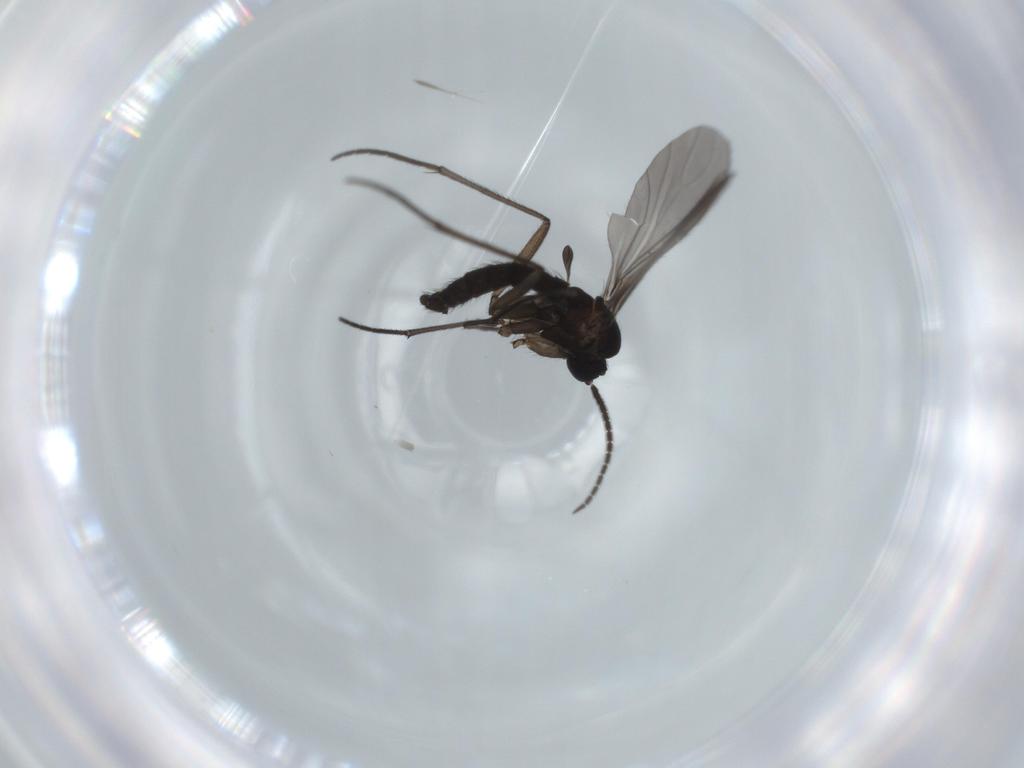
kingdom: Animalia
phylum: Arthropoda
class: Insecta
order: Diptera
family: Sciaridae
